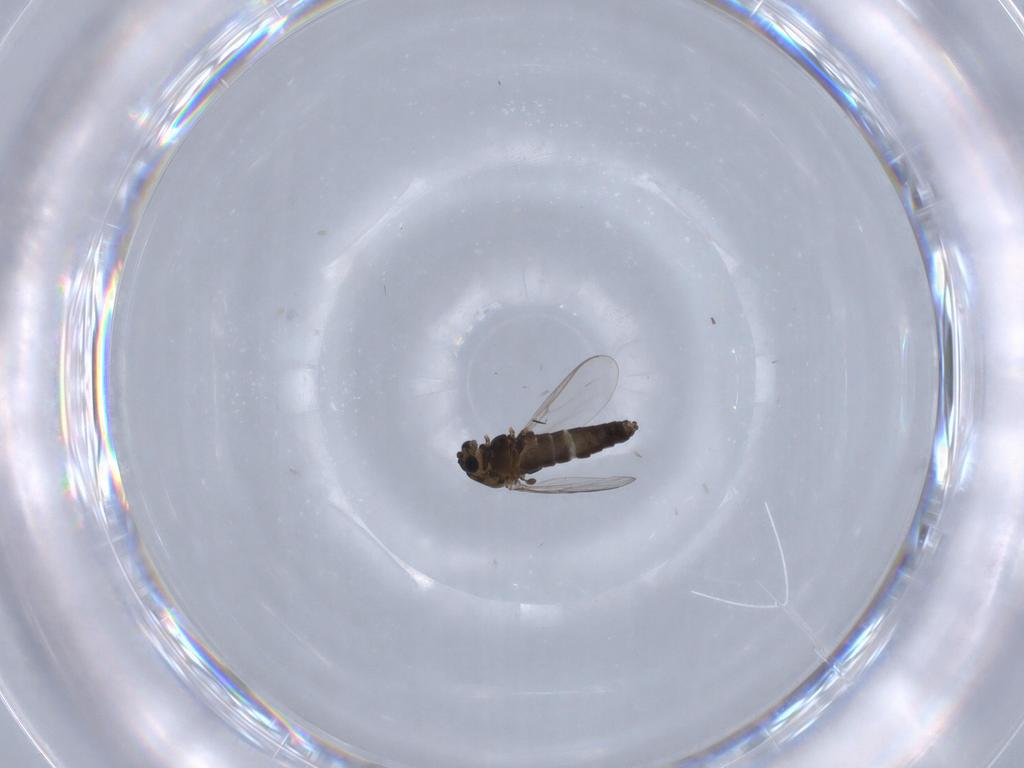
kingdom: Animalia
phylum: Arthropoda
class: Insecta
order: Diptera
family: Chironomidae
